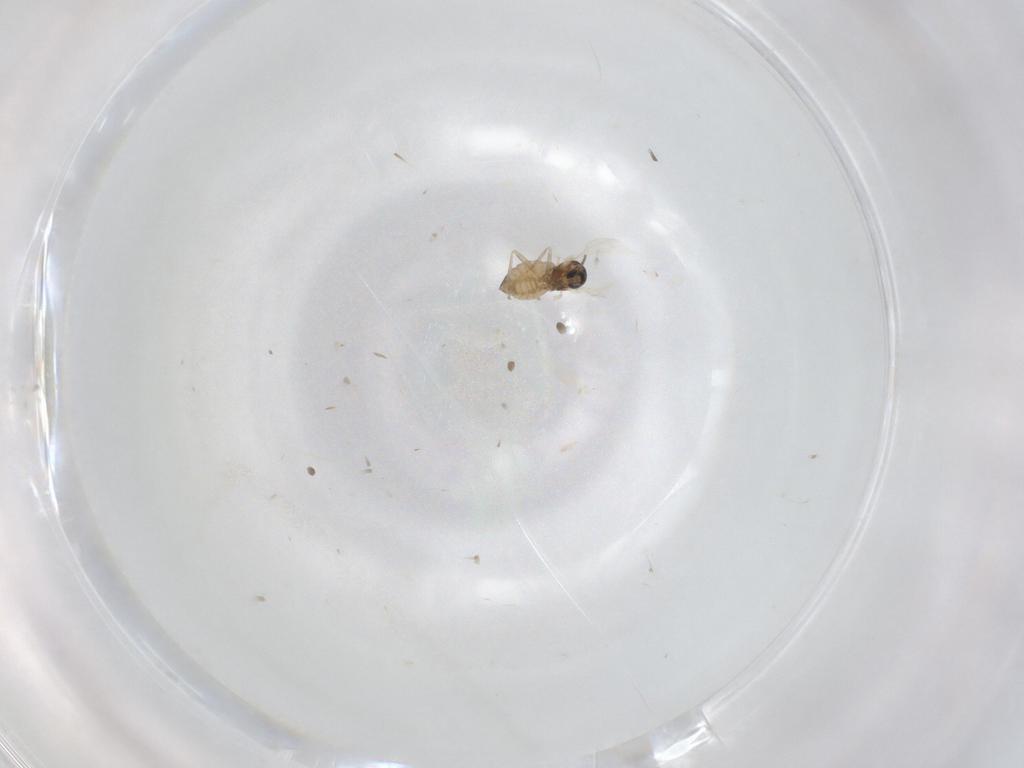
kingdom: Animalia
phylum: Arthropoda
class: Insecta
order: Diptera
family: Cecidomyiidae
